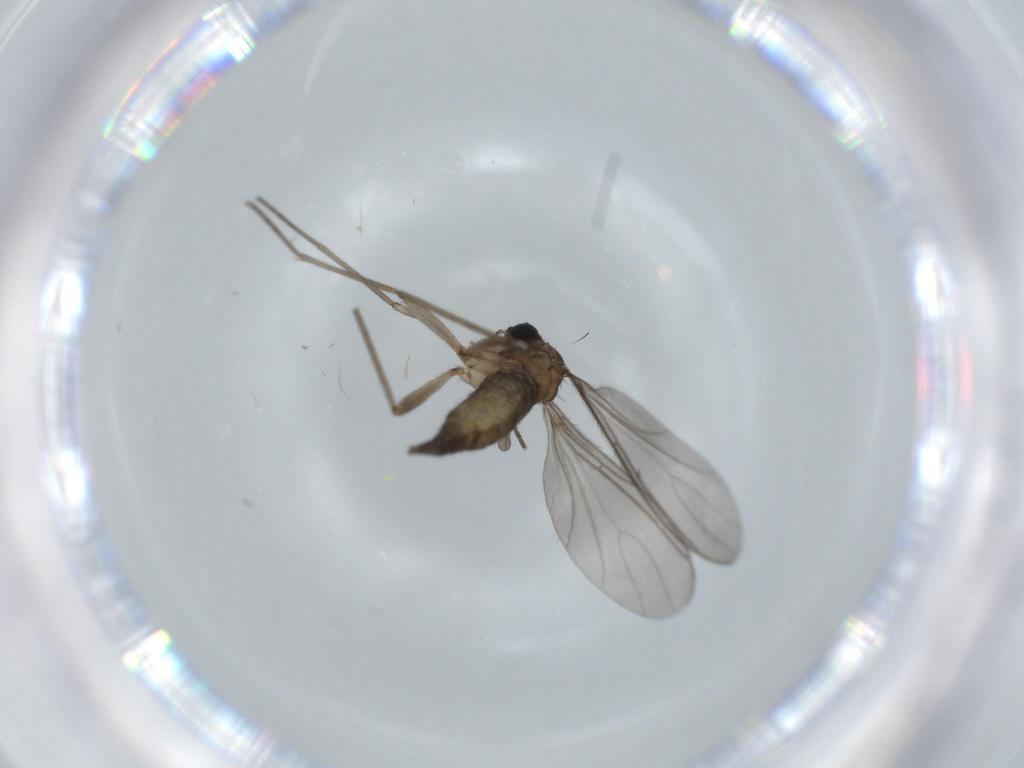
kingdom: Animalia
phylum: Arthropoda
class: Insecta
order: Diptera
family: Sciaridae
